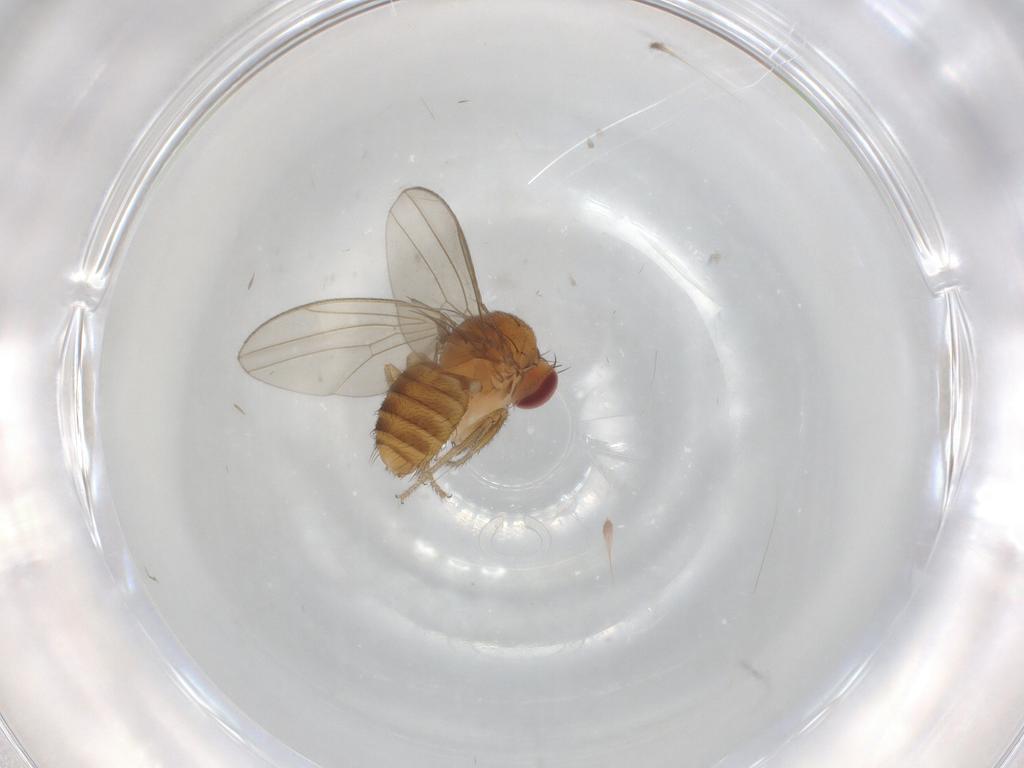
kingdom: Animalia
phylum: Arthropoda
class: Insecta
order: Diptera
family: Drosophilidae
